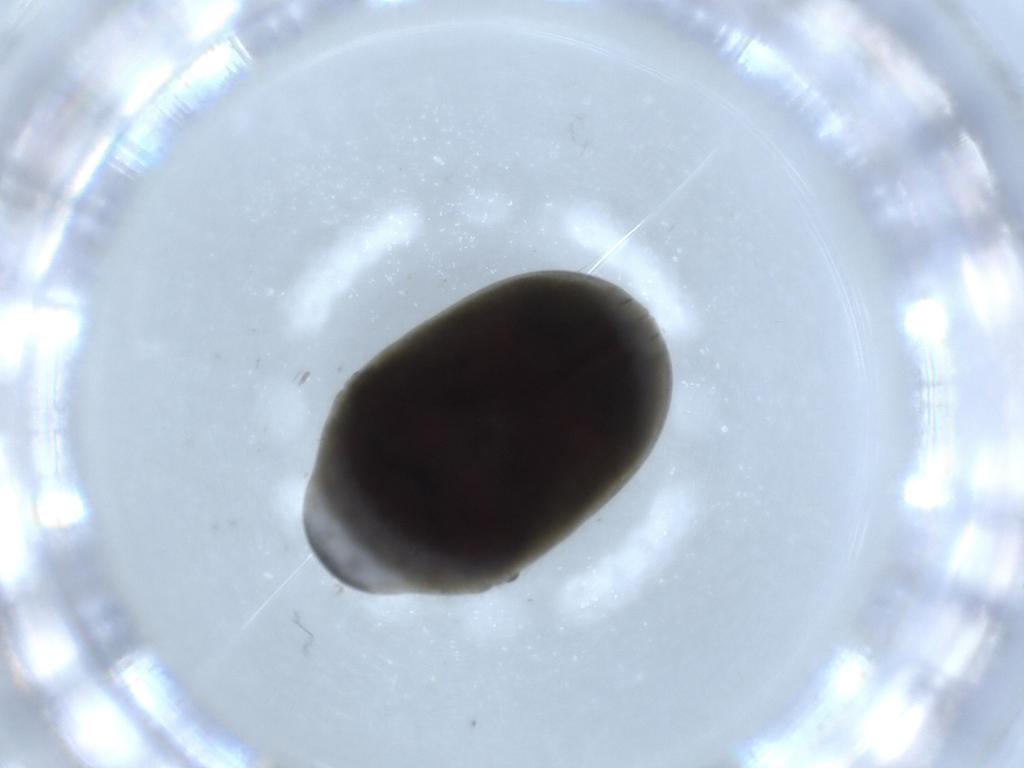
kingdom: Animalia
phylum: Arthropoda
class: Insecta
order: Coleoptera
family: Ptinidae
